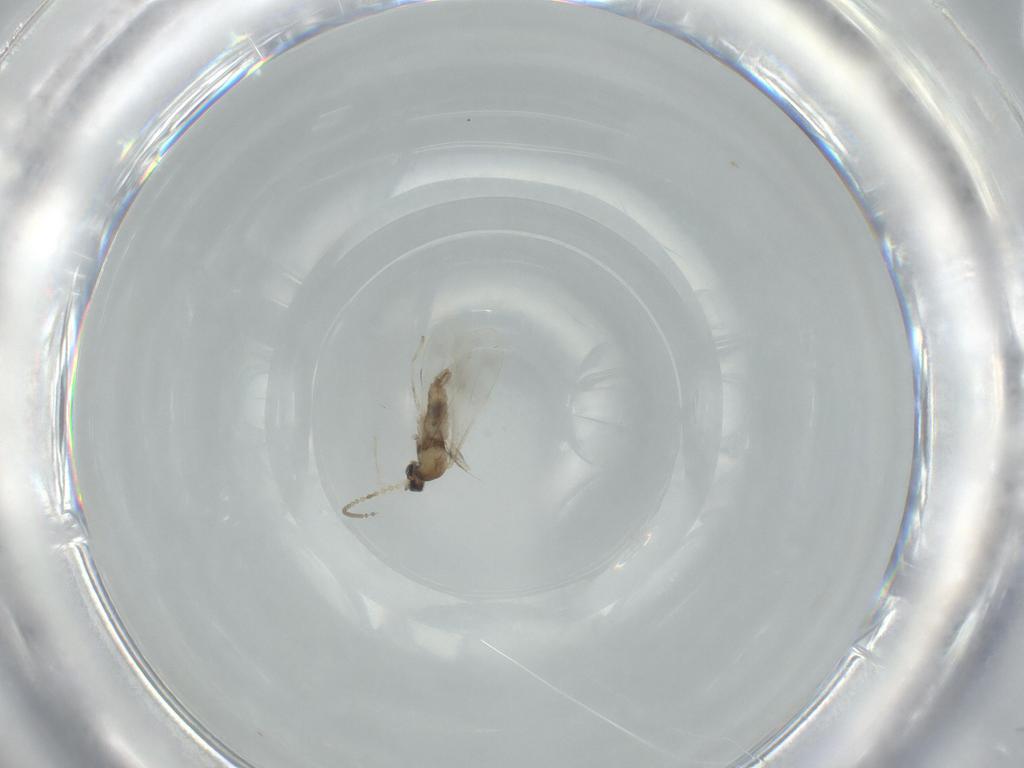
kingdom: Animalia
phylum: Arthropoda
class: Insecta
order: Diptera
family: Cecidomyiidae
